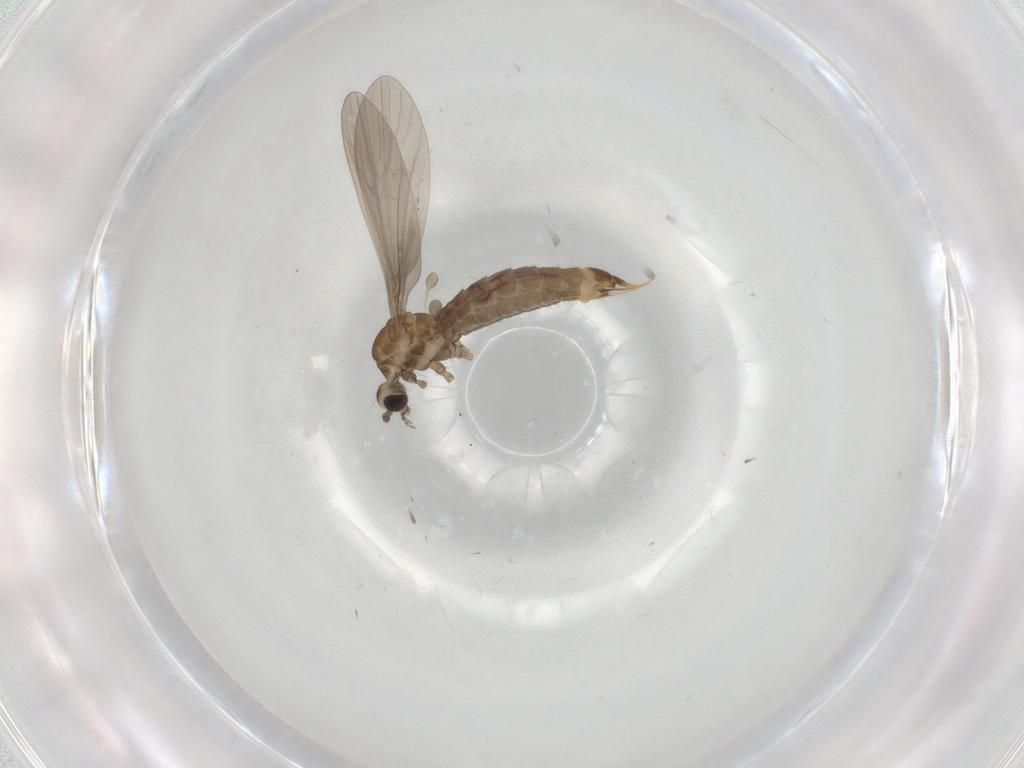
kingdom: Animalia
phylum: Arthropoda
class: Insecta
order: Diptera
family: Limoniidae
